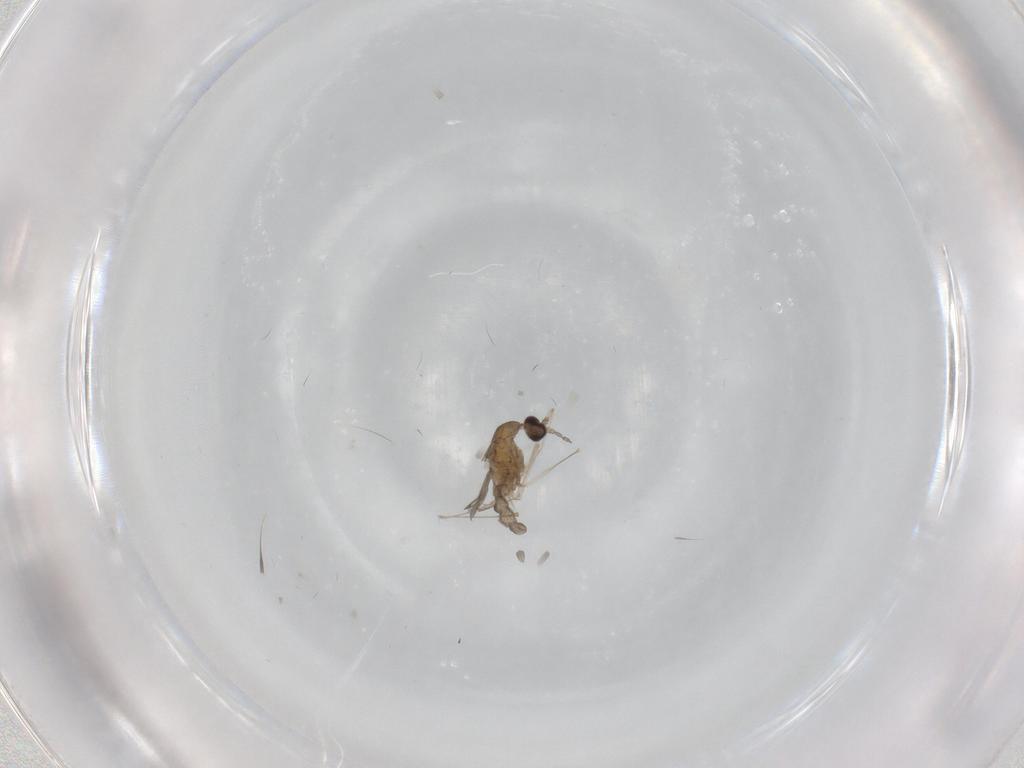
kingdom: Animalia
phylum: Arthropoda
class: Insecta
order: Diptera
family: Cecidomyiidae
